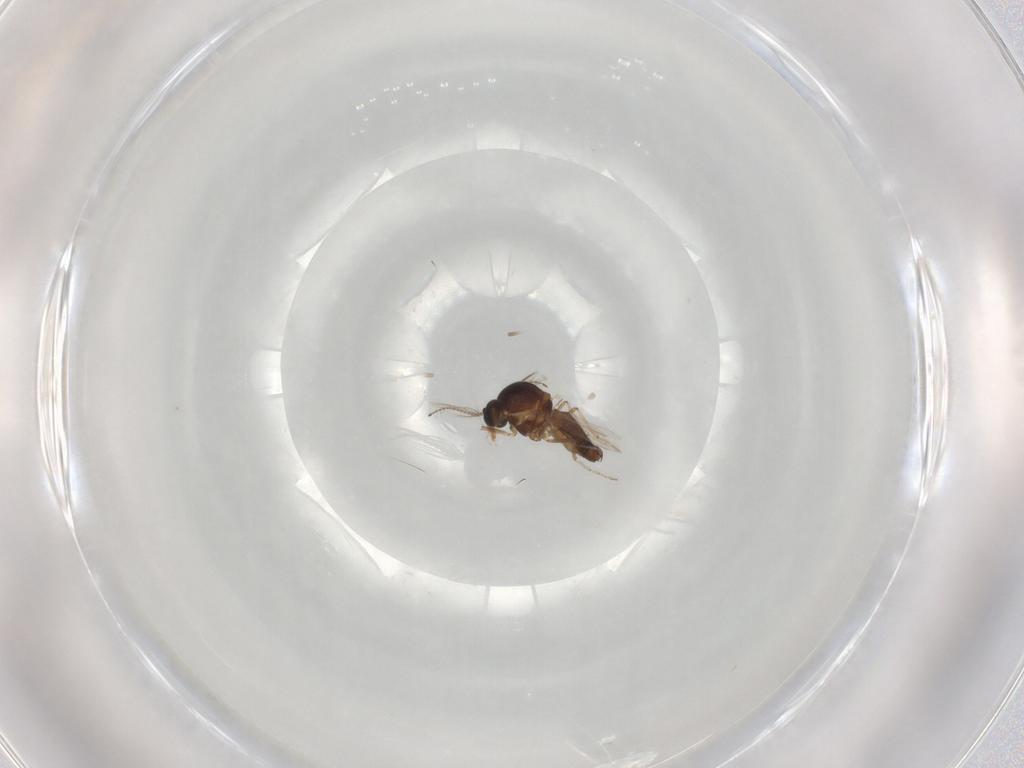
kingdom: Animalia
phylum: Arthropoda
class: Insecta
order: Diptera
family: Ceratopogonidae
